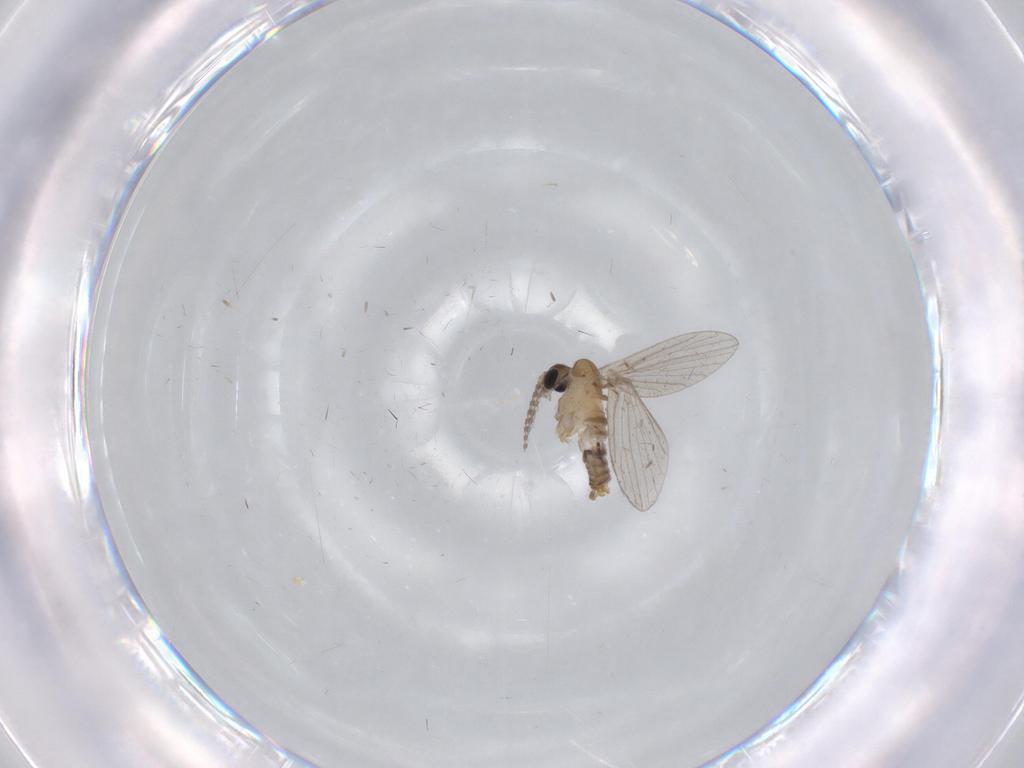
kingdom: Animalia
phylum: Arthropoda
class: Insecta
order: Diptera
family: Psychodidae
